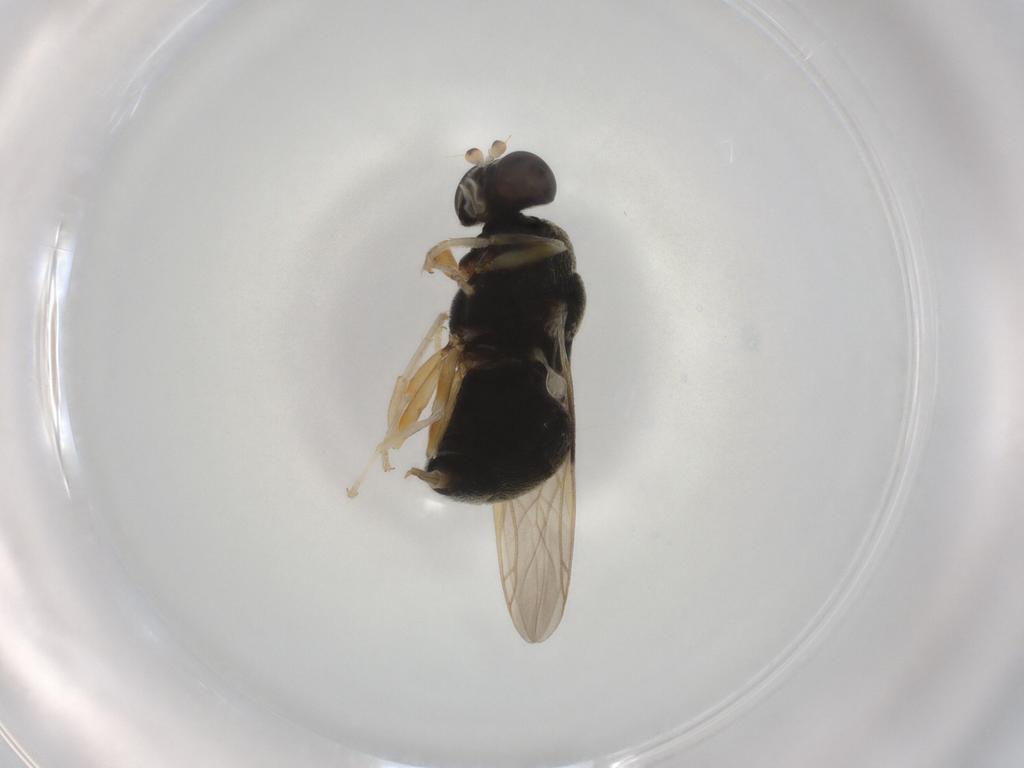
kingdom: Animalia
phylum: Arthropoda
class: Insecta
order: Diptera
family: Stratiomyidae
